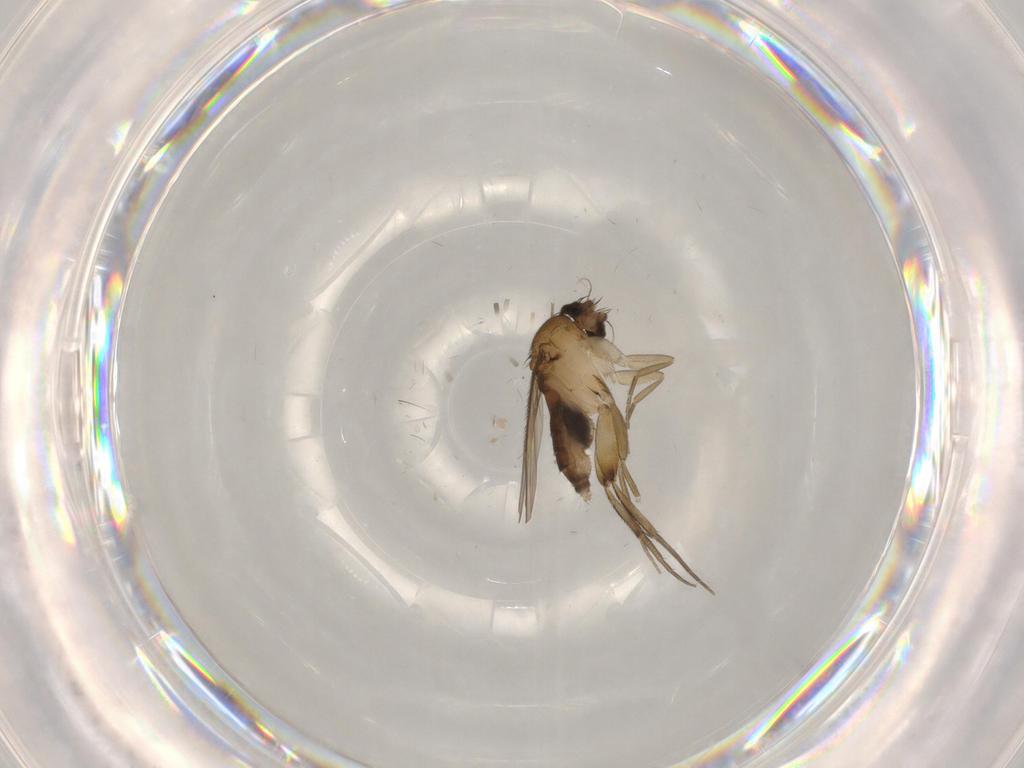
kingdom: Animalia
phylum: Arthropoda
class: Insecta
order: Diptera
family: Phoridae
